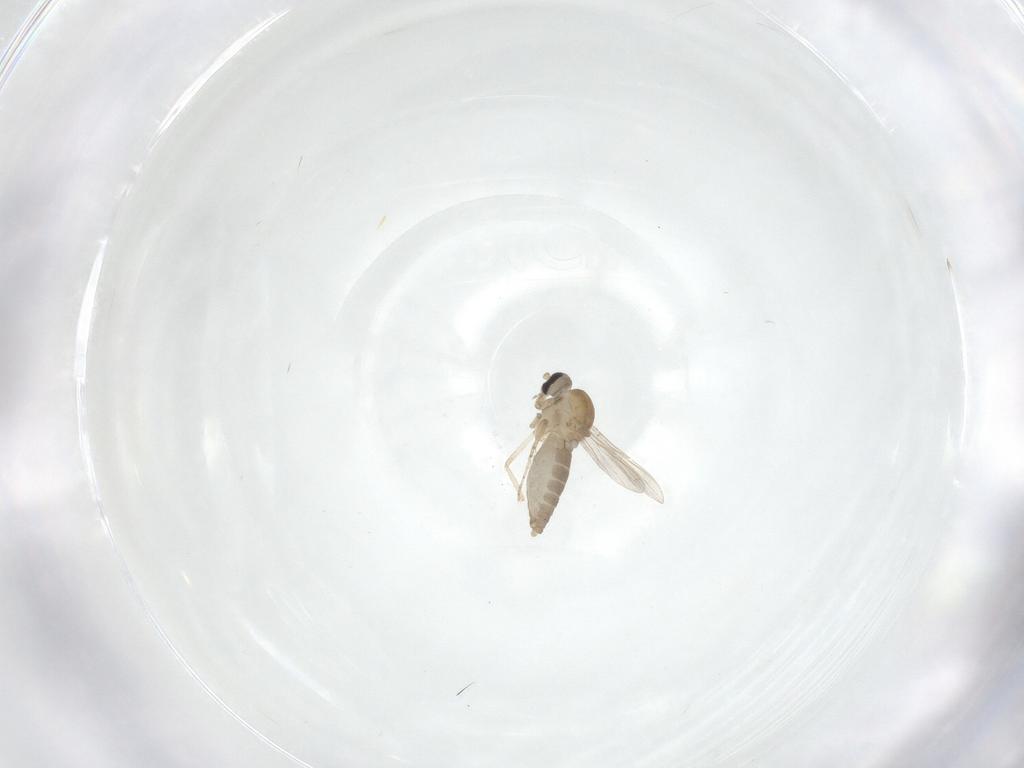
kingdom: Animalia
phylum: Arthropoda
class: Insecta
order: Diptera
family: Ceratopogonidae
